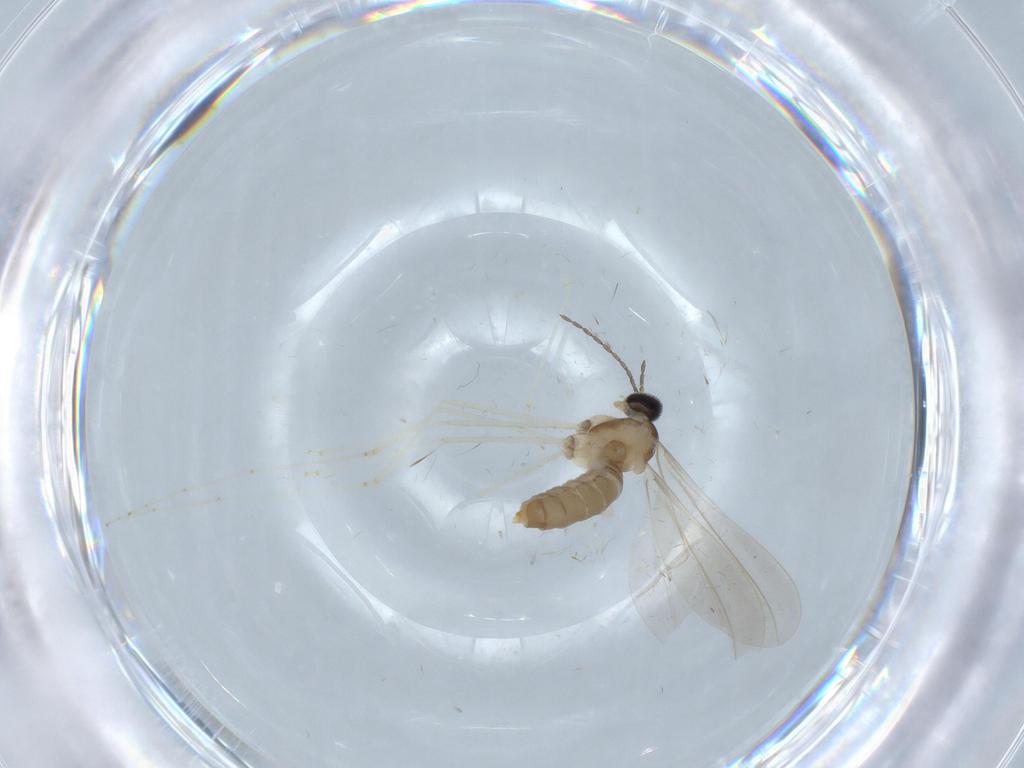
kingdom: Animalia
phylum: Arthropoda
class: Insecta
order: Diptera
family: Cecidomyiidae
